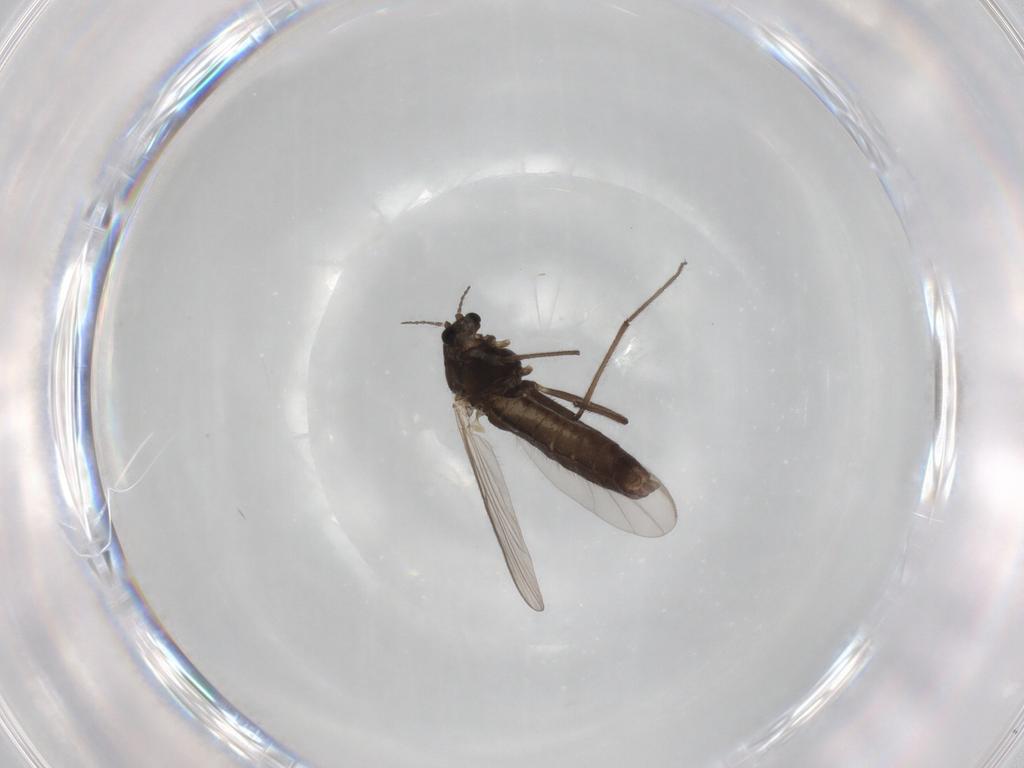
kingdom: Animalia
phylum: Arthropoda
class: Insecta
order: Diptera
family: Chironomidae
